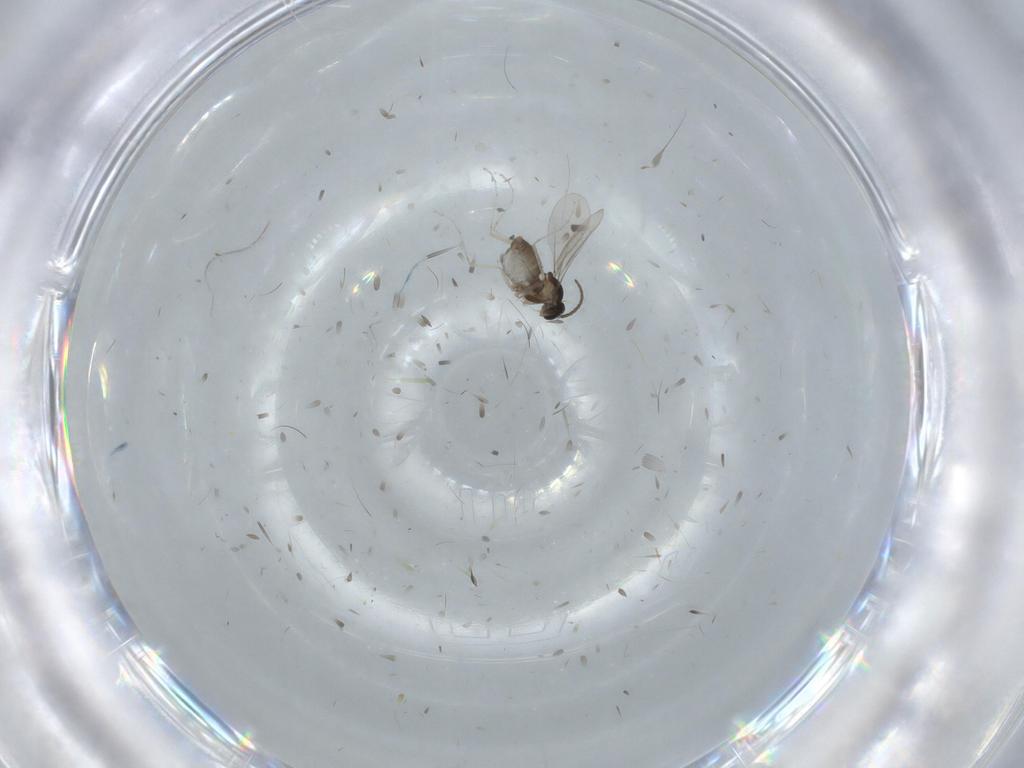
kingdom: Animalia
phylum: Arthropoda
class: Insecta
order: Diptera
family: Cecidomyiidae
